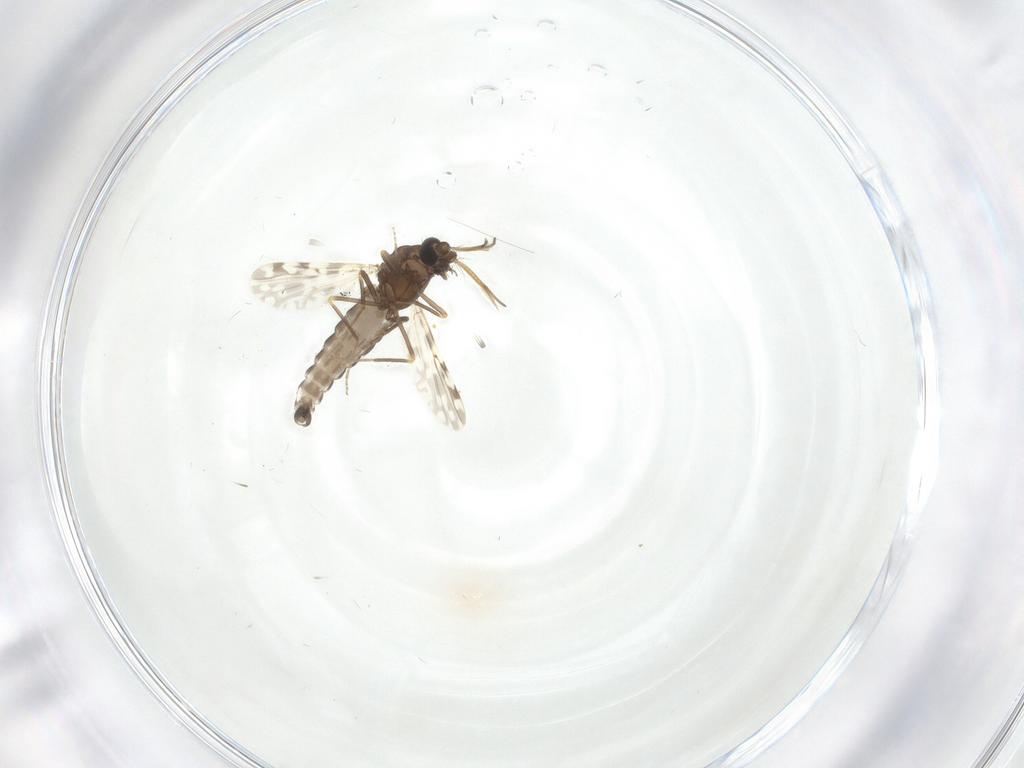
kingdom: Animalia
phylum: Arthropoda
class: Insecta
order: Diptera
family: Ceratopogonidae
